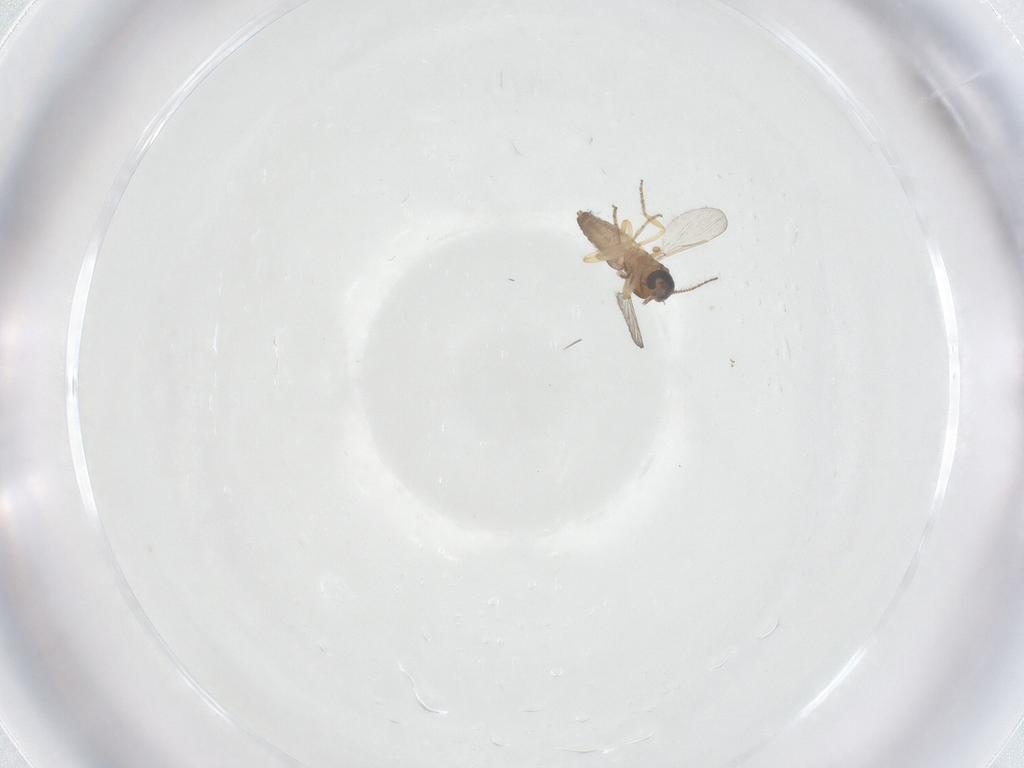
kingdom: Animalia
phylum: Arthropoda
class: Insecta
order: Diptera
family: Ceratopogonidae
